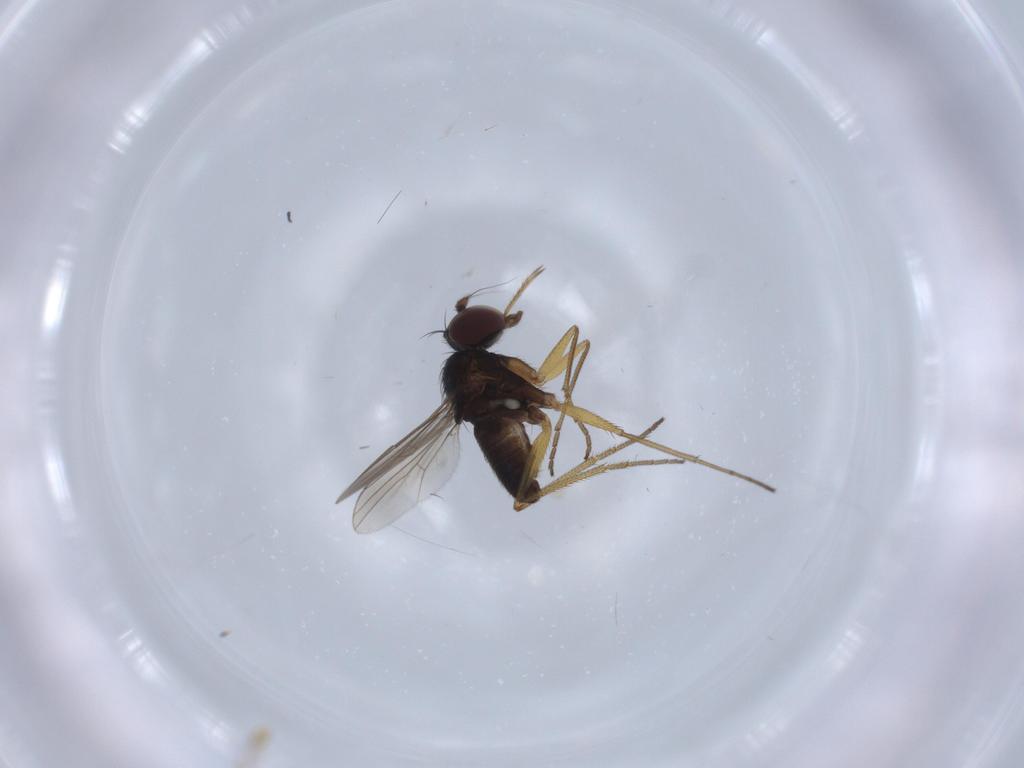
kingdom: Animalia
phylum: Arthropoda
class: Insecta
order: Diptera
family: Dolichopodidae
